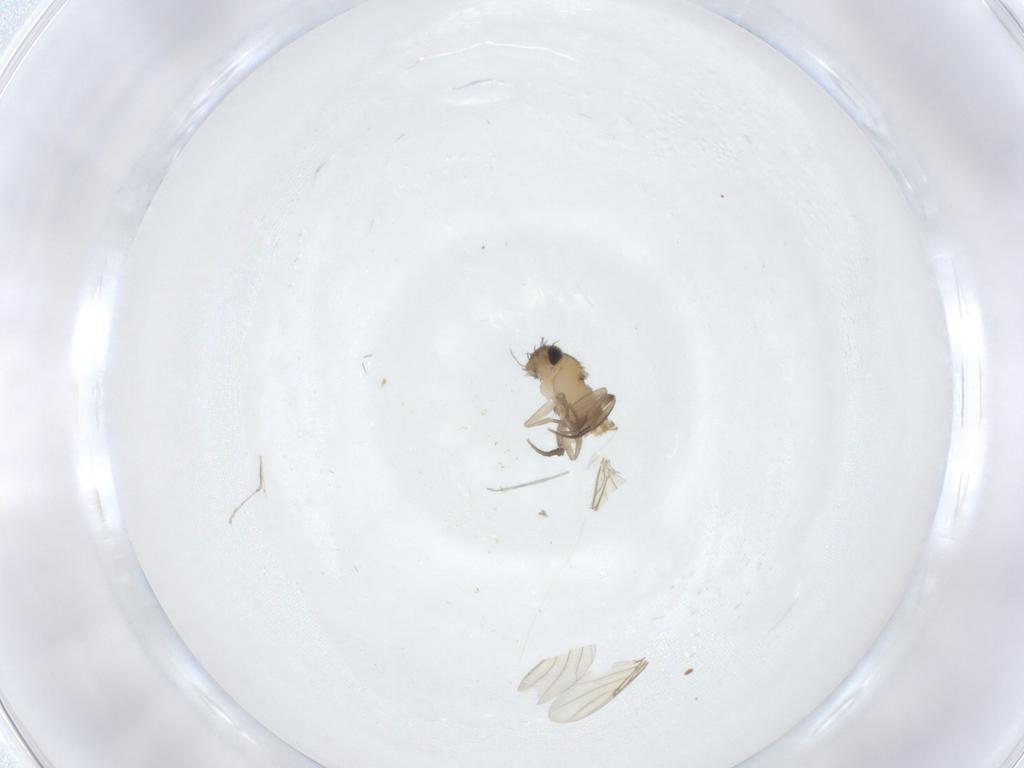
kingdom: Animalia
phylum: Arthropoda
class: Insecta
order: Diptera
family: Phoridae
